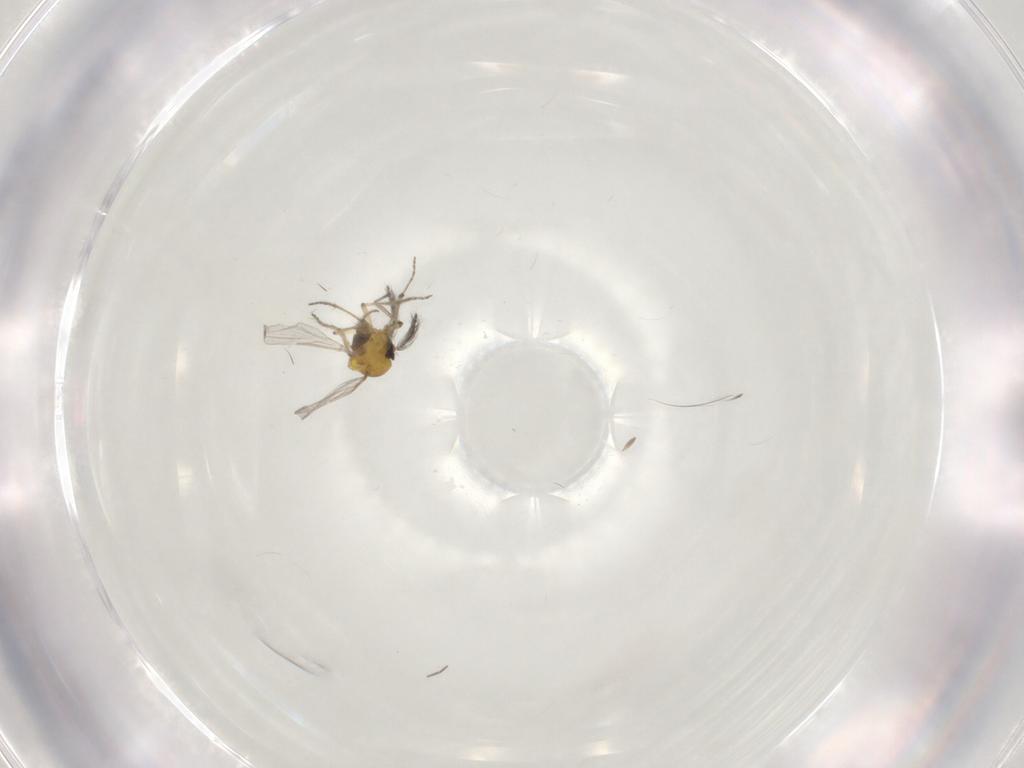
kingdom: Animalia
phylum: Arthropoda
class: Insecta
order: Diptera
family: Ceratopogonidae
